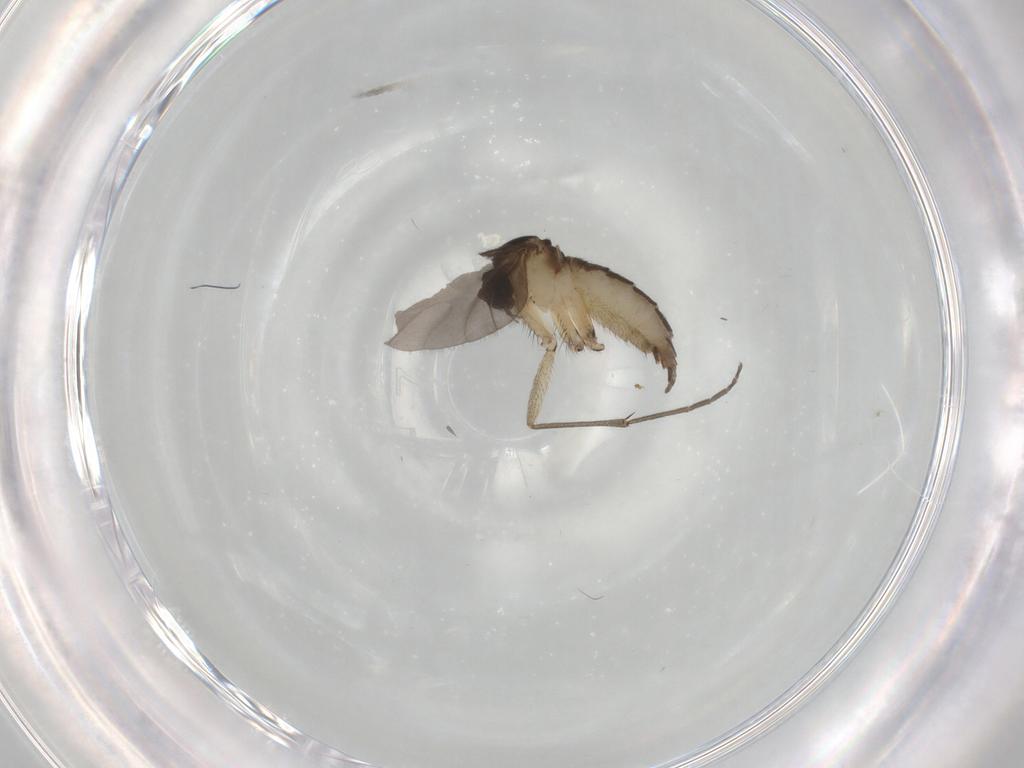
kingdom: Animalia
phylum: Arthropoda
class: Insecta
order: Diptera
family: Sciaridae
